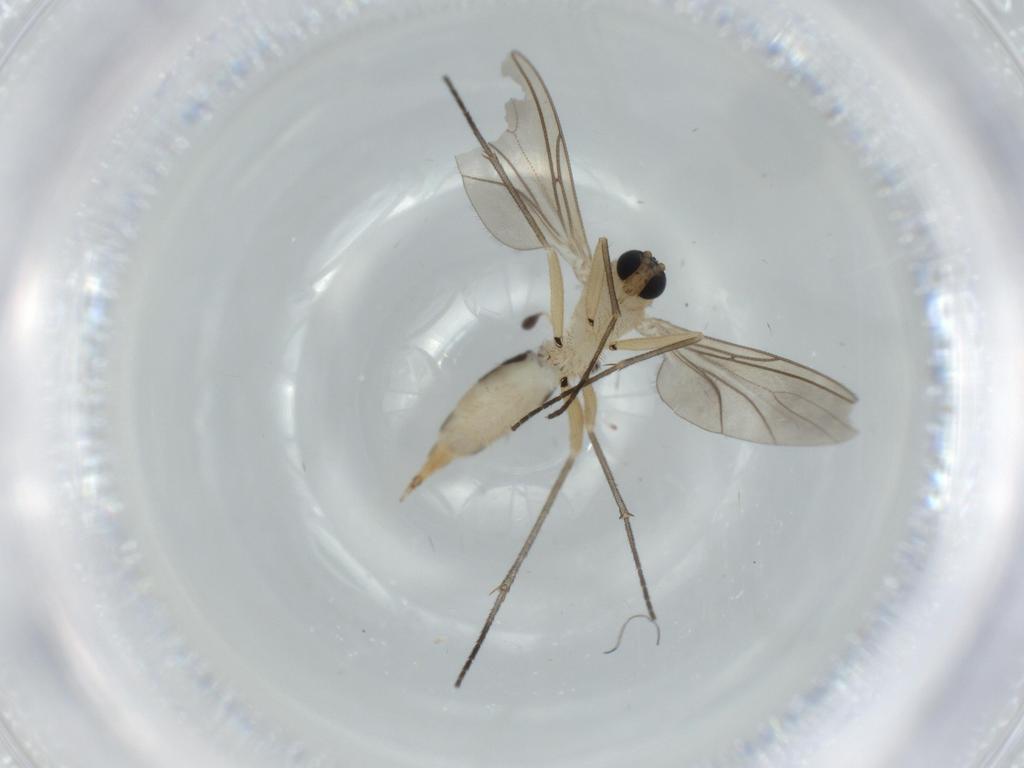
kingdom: Animalia
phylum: Arthropoda
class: Insecta
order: Diptera
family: Sciaridae
